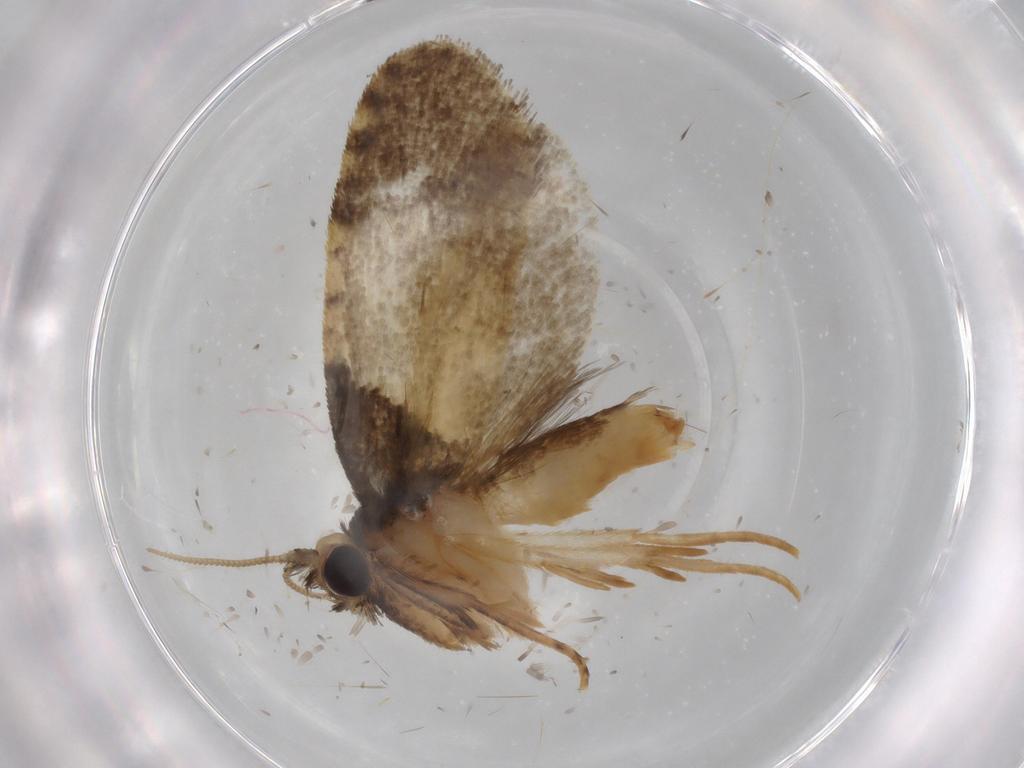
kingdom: Animalia
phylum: Arthropoda
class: Insecta
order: Lepidoptera
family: Psychidae
